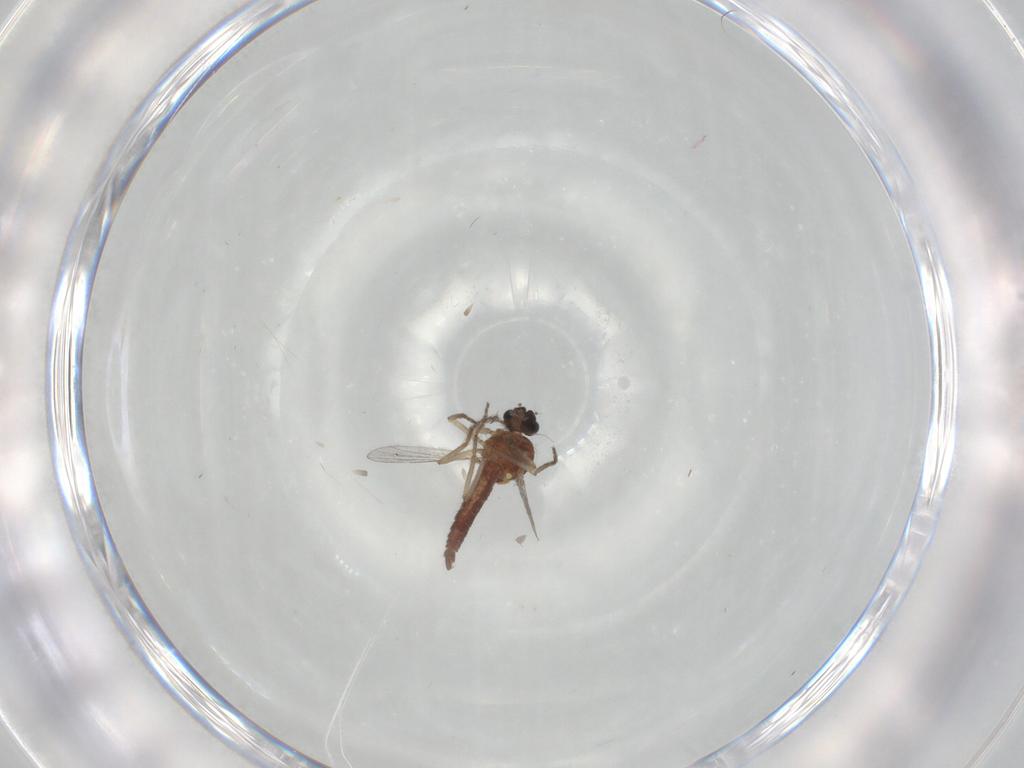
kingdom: Animalia
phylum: Arthropoda
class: Insecta
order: Diptera
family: Ceratopogonidae
